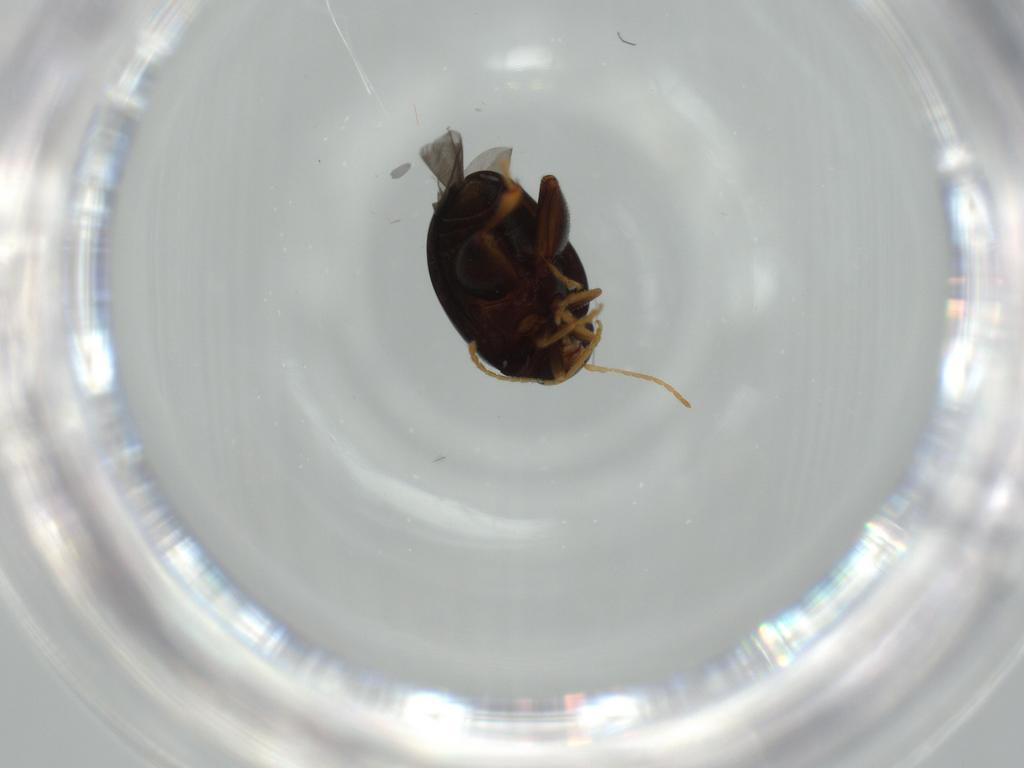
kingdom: Animalia
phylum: Arthropoda
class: Insecta
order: Coleoptera
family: Chrysomelidae
